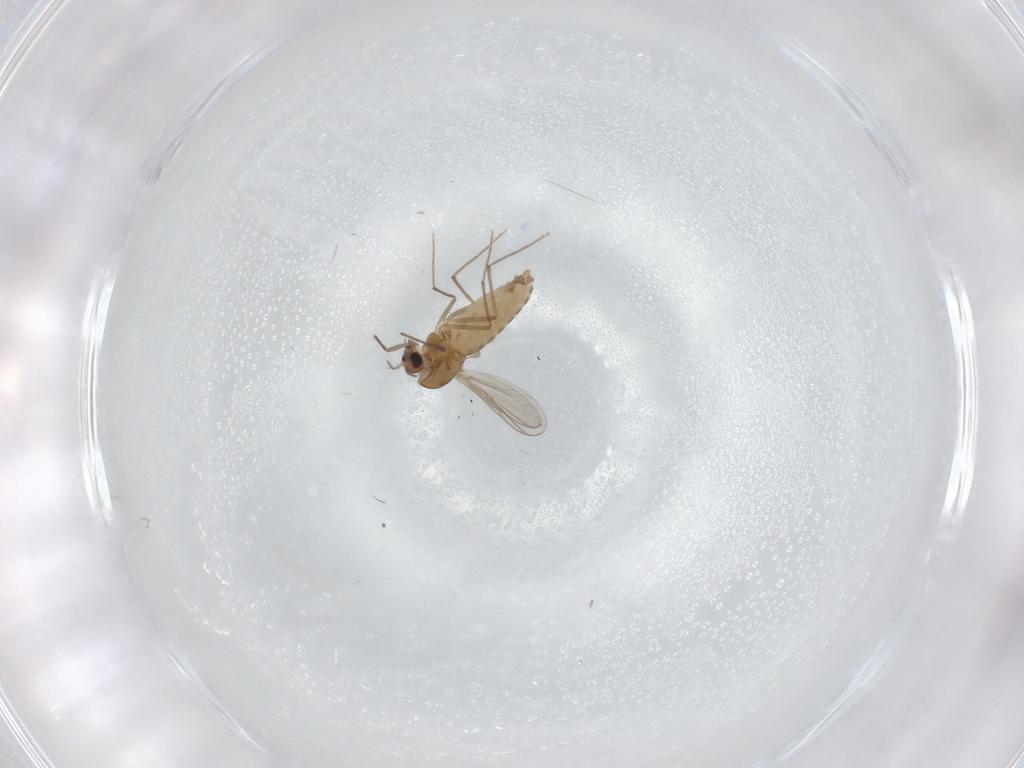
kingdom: Animalia
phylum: Arthropoda
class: Insecta
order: Diptera
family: Chironomidae
